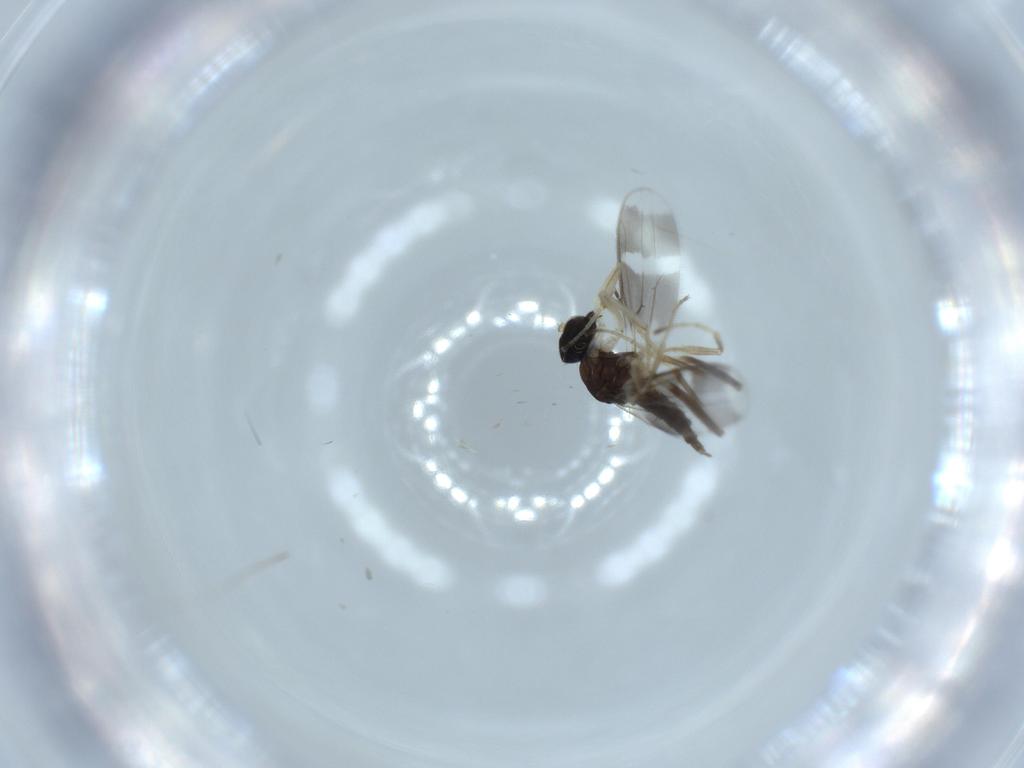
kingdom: Animalia
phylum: Arthropoda
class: Insecta
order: Diptera
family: Hybotidae
